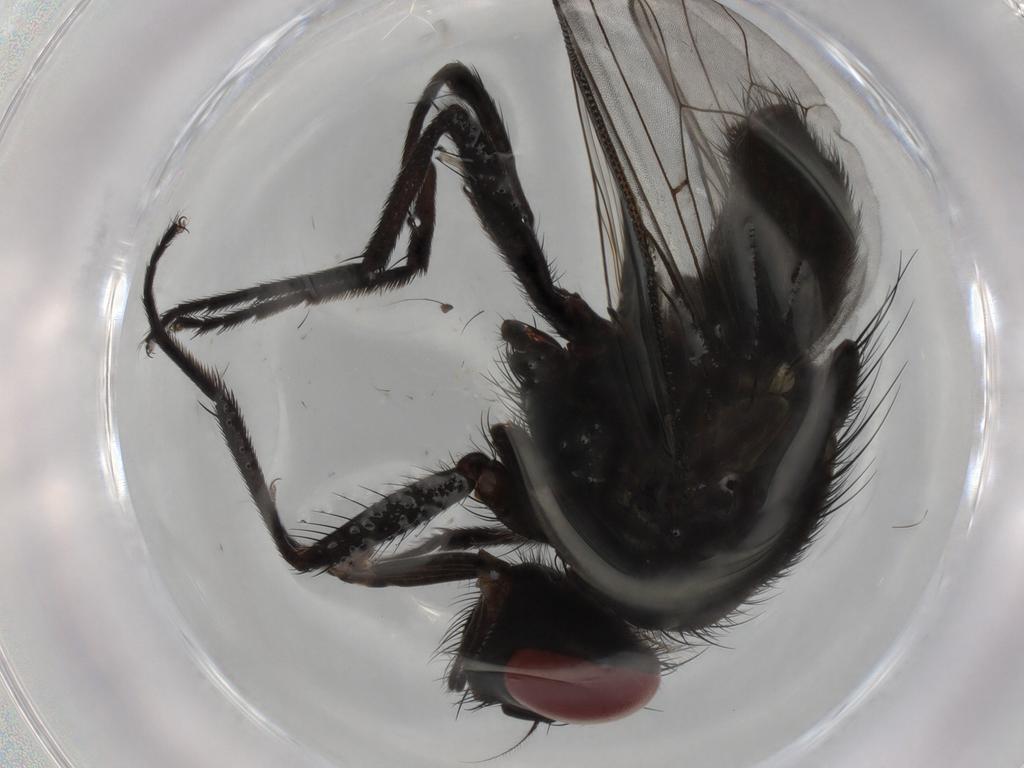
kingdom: Animalia
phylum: Arthropoda
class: Insecta
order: Diptera
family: Muscidae
